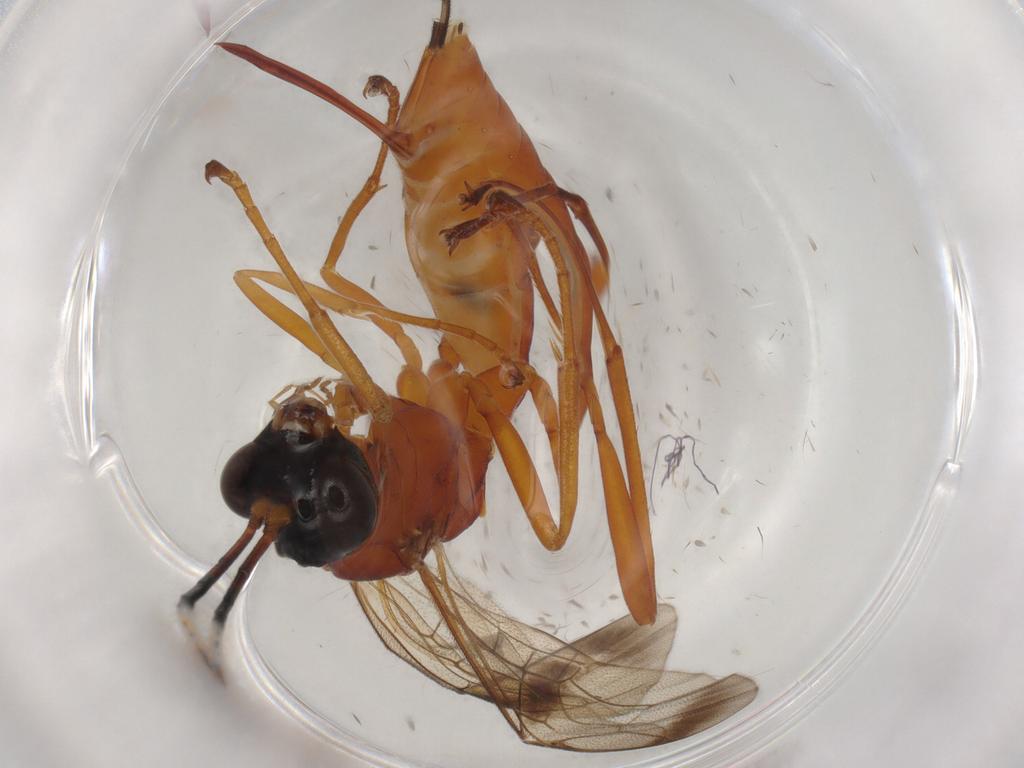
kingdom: Animalia
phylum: Arthropoda
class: Insecta
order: Hymenoptera
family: Ichneumonidae
